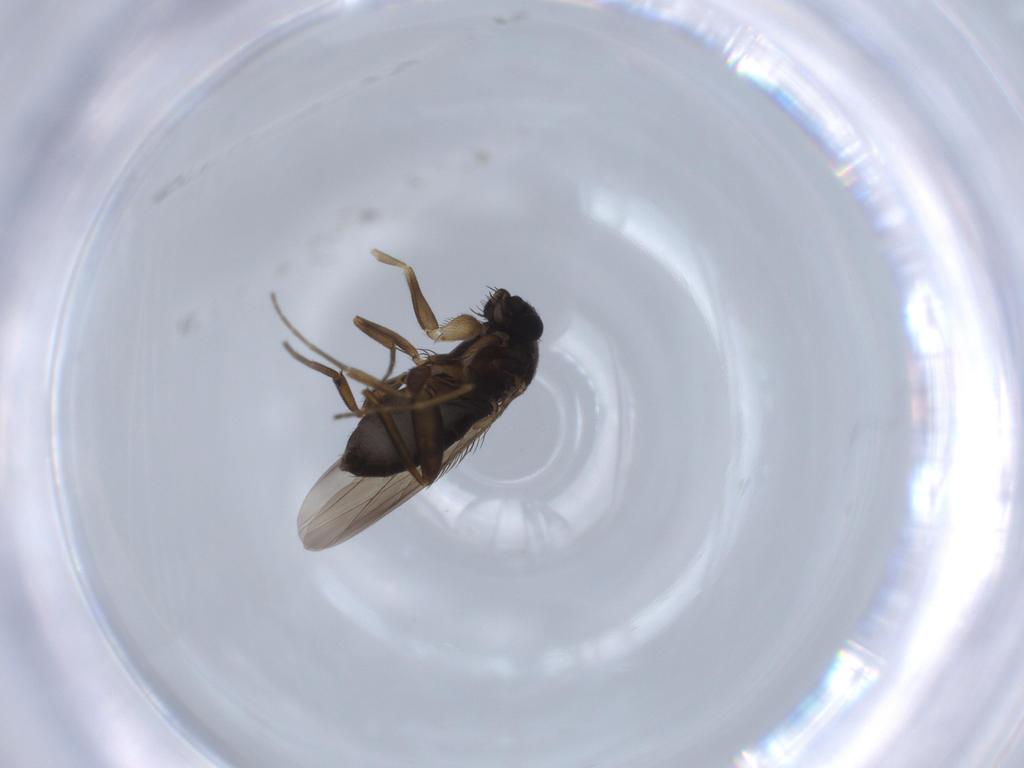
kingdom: Animalia
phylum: Arthropoda
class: Insecta
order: Diptera
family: Phoridae
